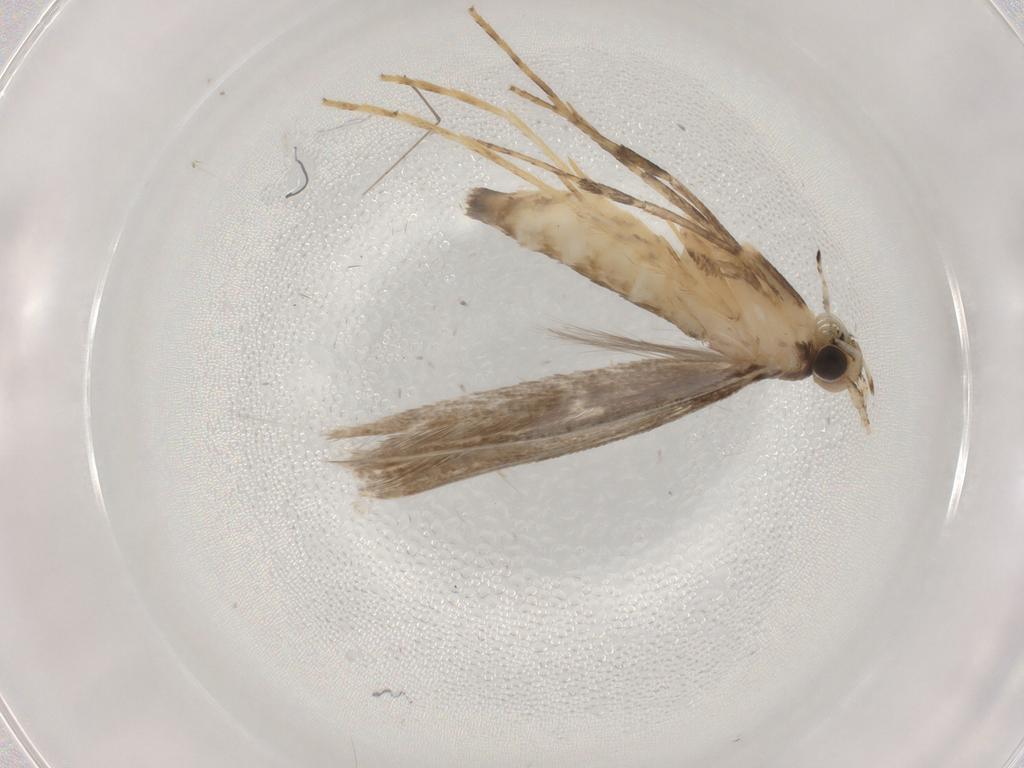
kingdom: Animalia
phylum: Arthropoda
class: Insecta
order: Lepidoptera
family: Gracillariidae
